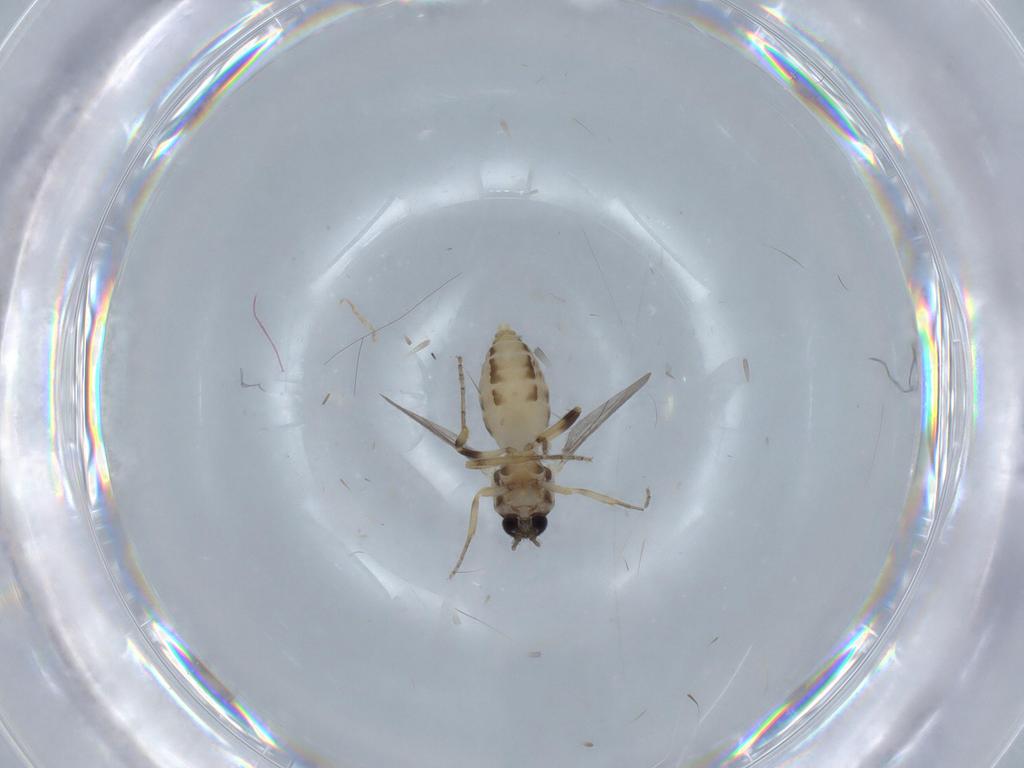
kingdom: Animalia
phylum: Arthropoda
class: Insecta
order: Diptera
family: Ceratopogonidae
